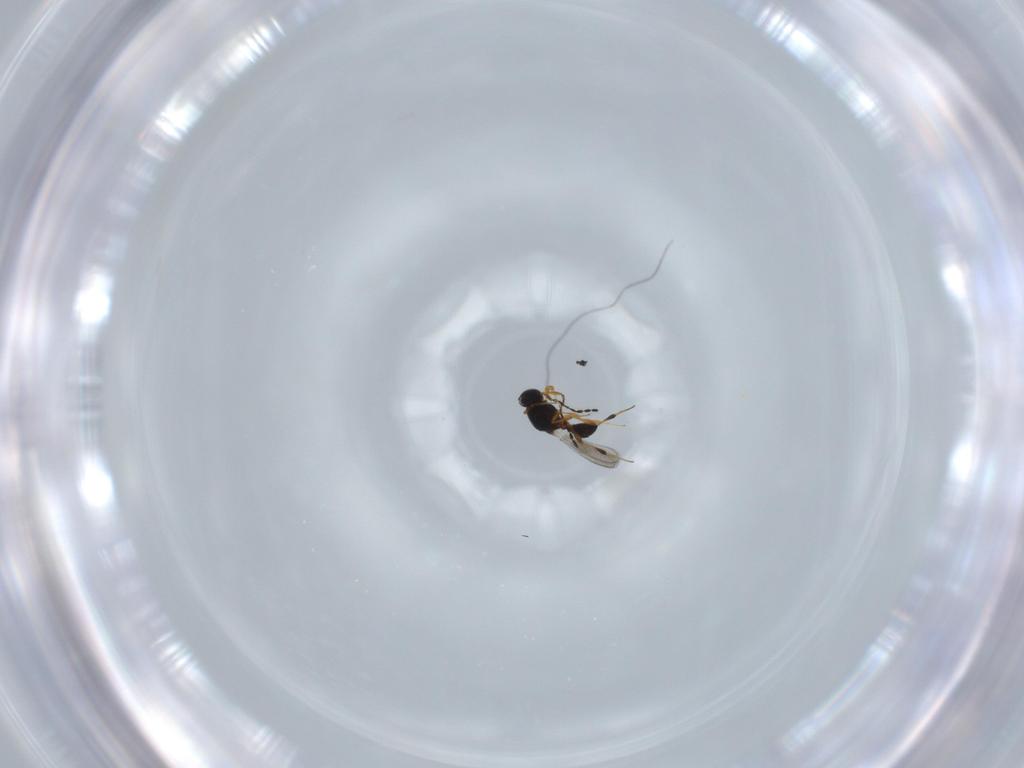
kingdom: Animalia
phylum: Arthropoda
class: Insecta
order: Hymenoptera
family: Platygastridae
